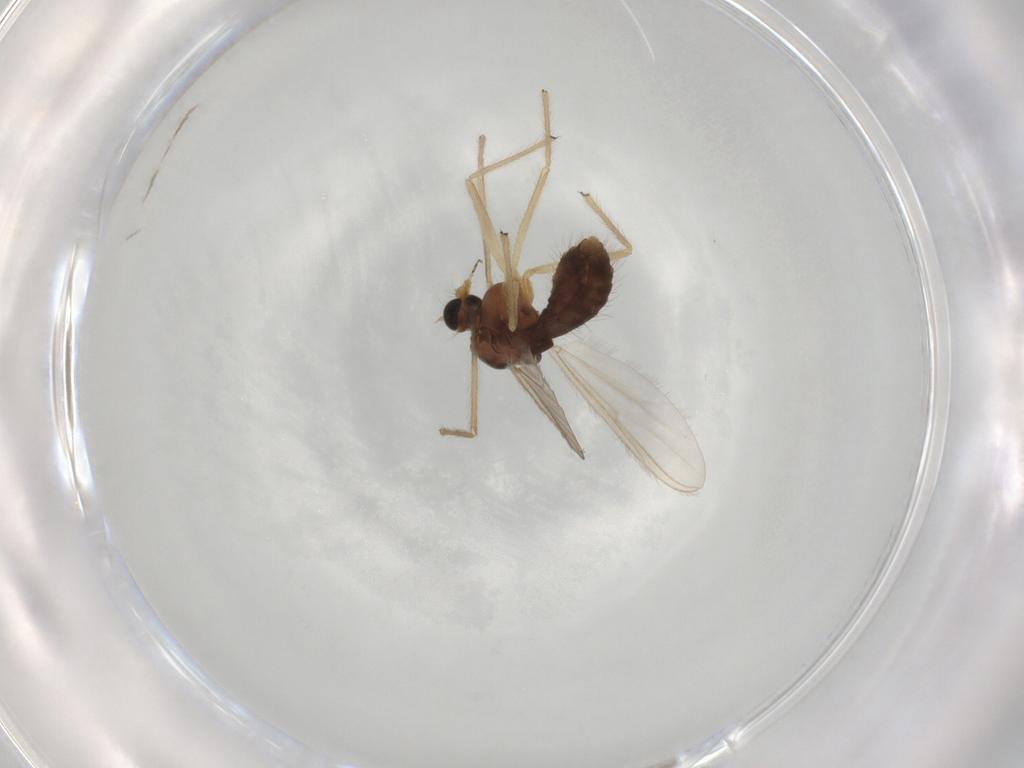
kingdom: Animalia
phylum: Arthropoda
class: Insecta
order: Diptera
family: Chironomidae
